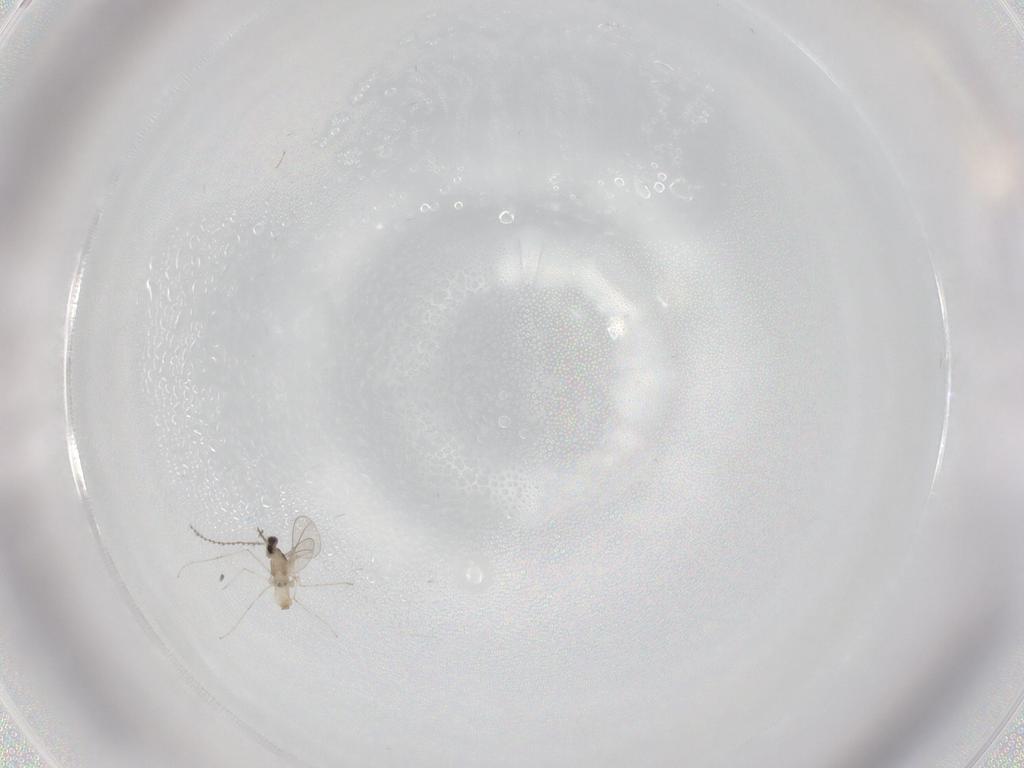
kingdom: Animalia
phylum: Arthropoda
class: Insecta
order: Diptera
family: Cecidomyiidae
